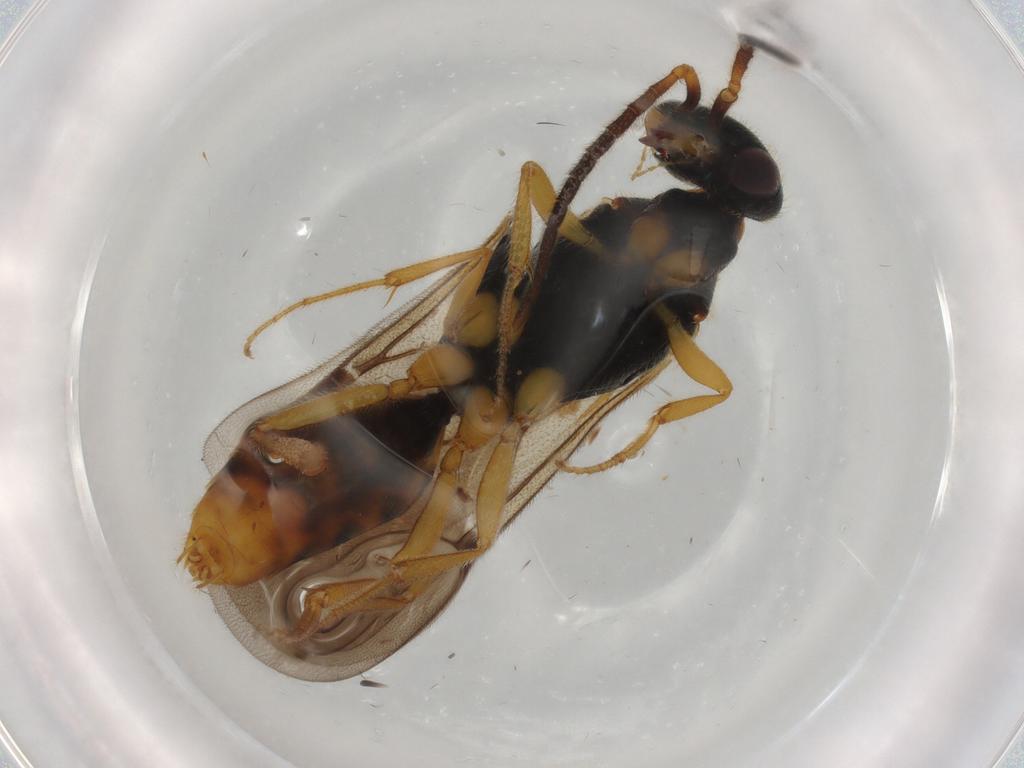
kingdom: Animalia
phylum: Arthropoda
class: Insecta
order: Hymenoptera
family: Bethylidae
